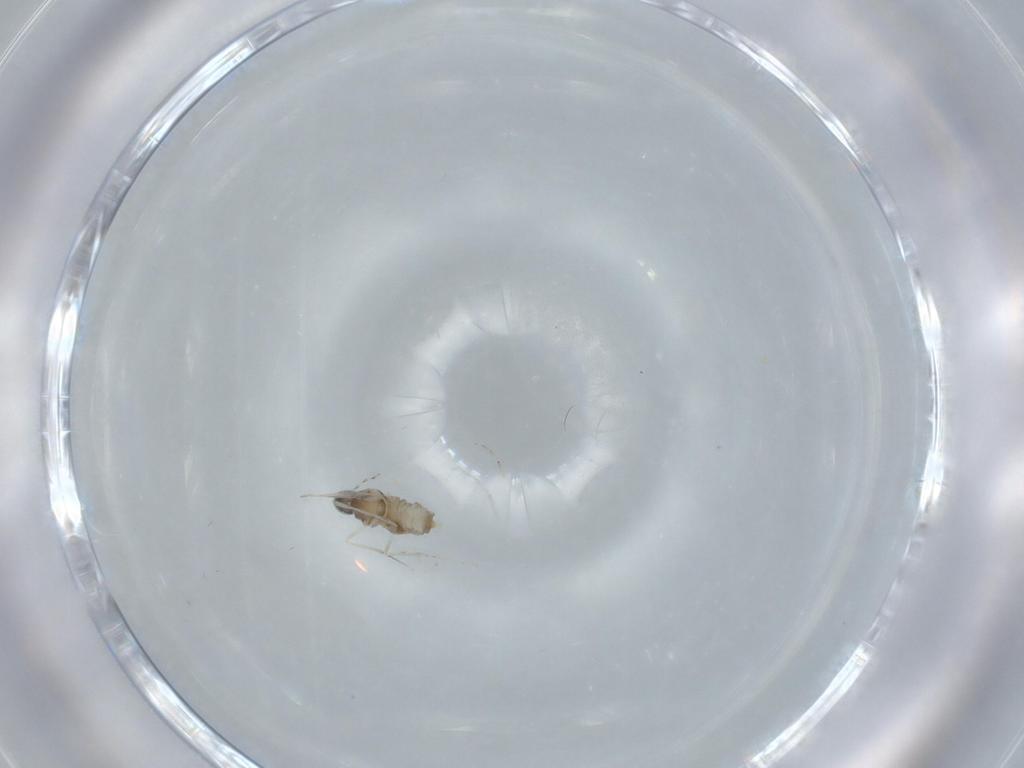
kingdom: Animalia
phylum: Arthropoda
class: Insecta
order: Diptera
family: Cecidomyiidae
